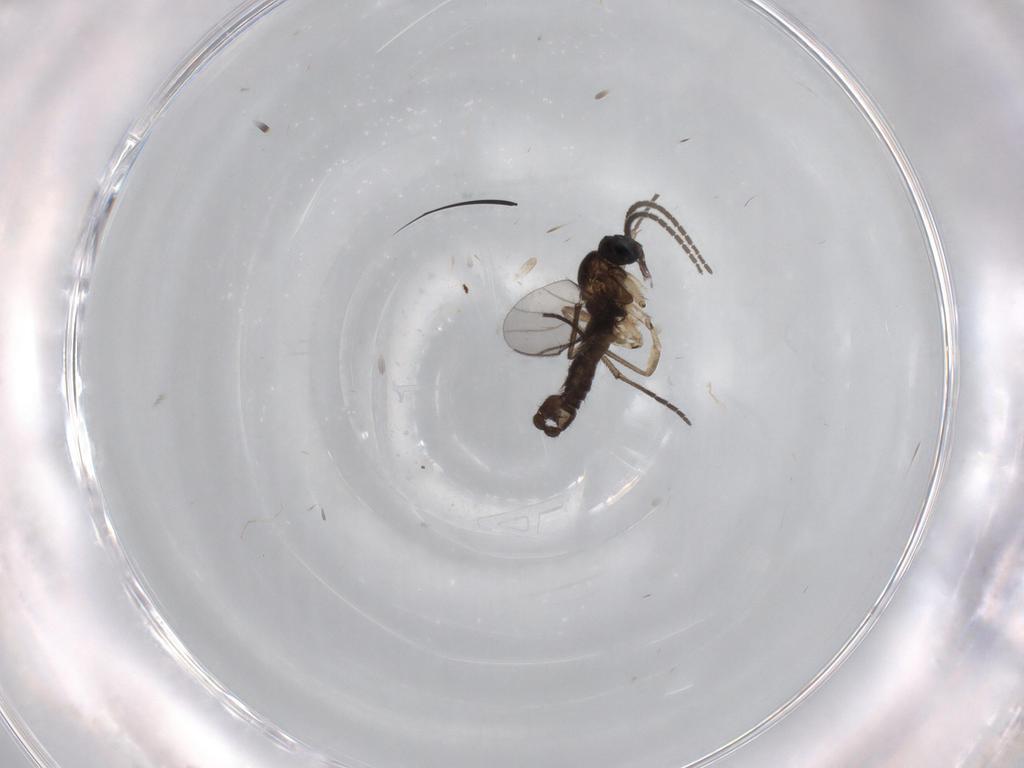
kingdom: Animalia
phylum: Arthropoda
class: Insecta
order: Diptera
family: Sciaridae
